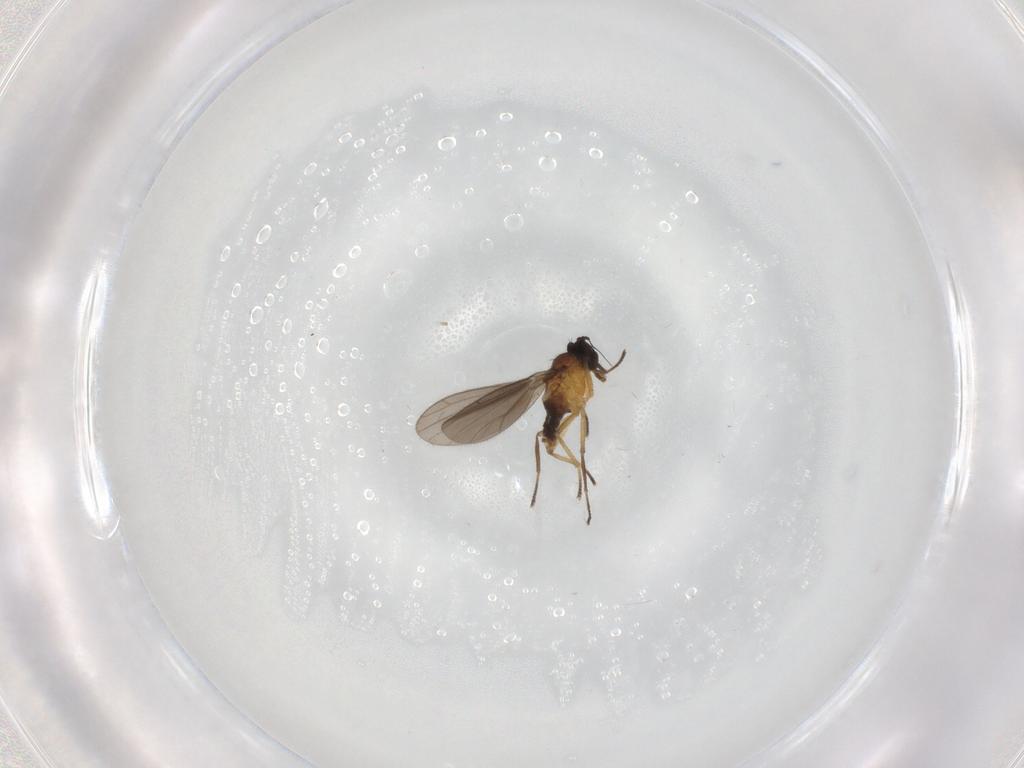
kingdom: Animalia
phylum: Arthropoda
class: Insecta
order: Diptera
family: Empididae
